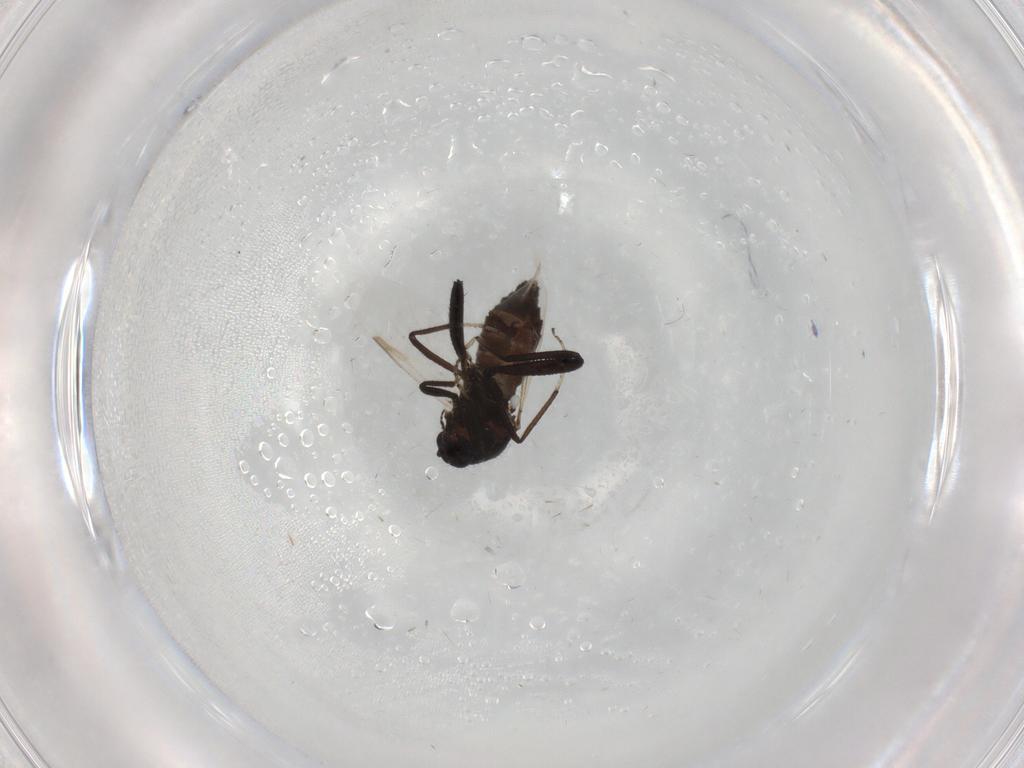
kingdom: Animalia
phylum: Arthropoda
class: Insecta
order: Diptera
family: Ceratopogonidae
